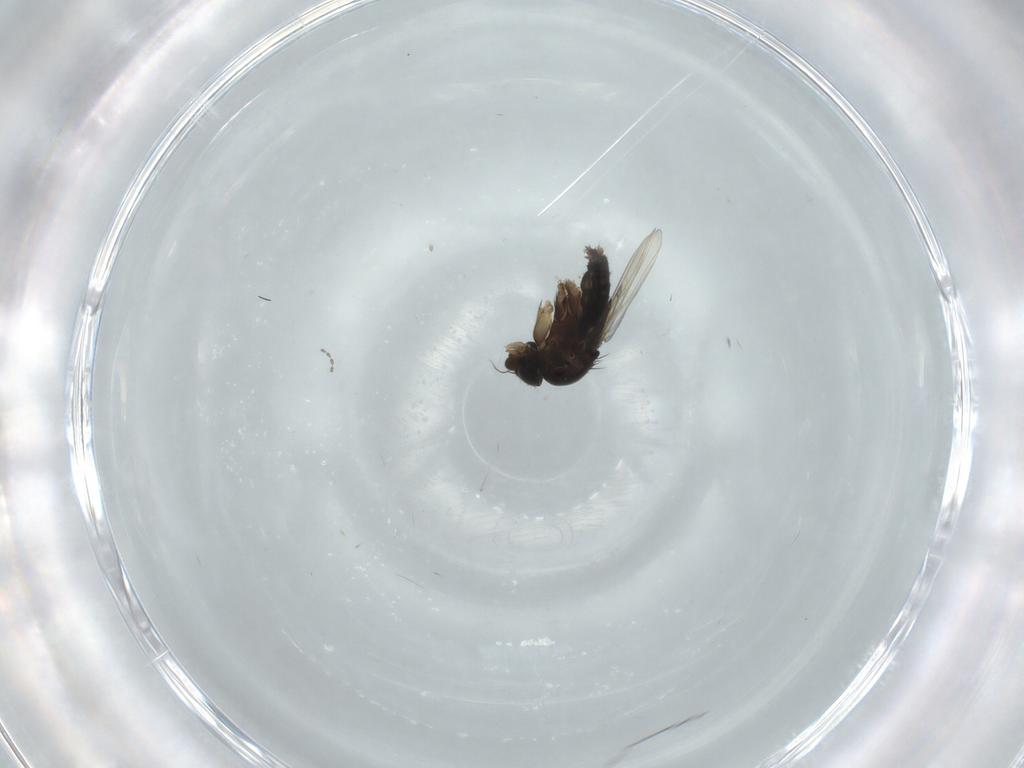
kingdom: Animalia
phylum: Arthropoda
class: Insecta
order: Diptera
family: Phoridae
